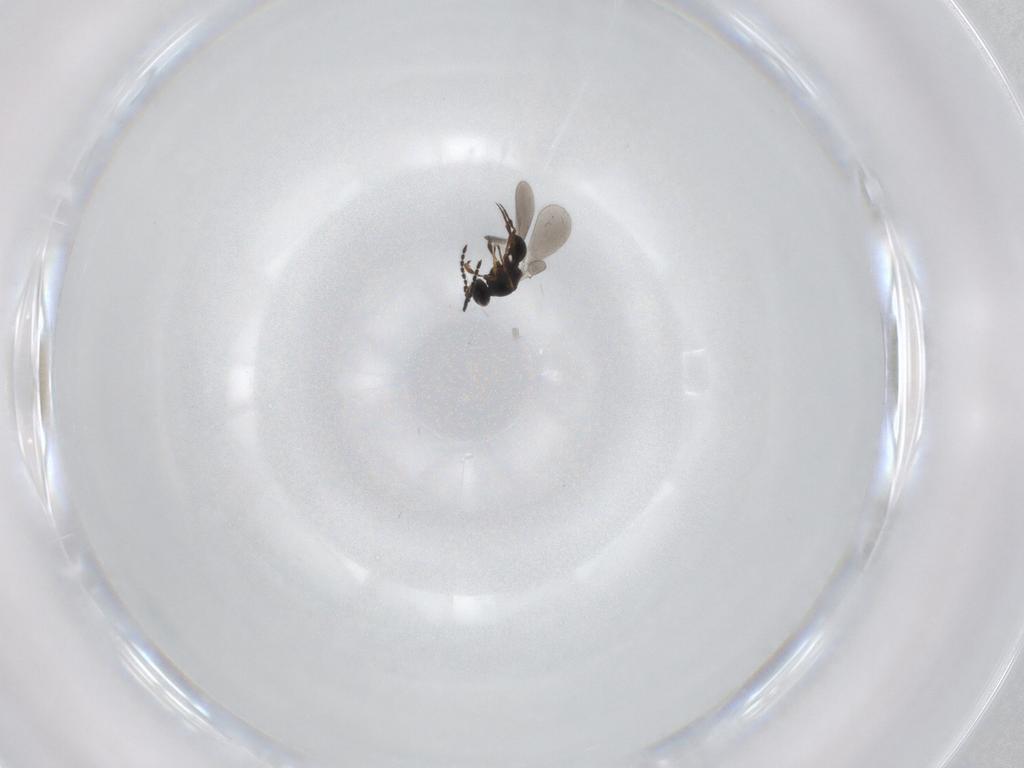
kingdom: Animalia
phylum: Arthropoda
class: Insecta
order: Hymenoptera
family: Platygastridae
